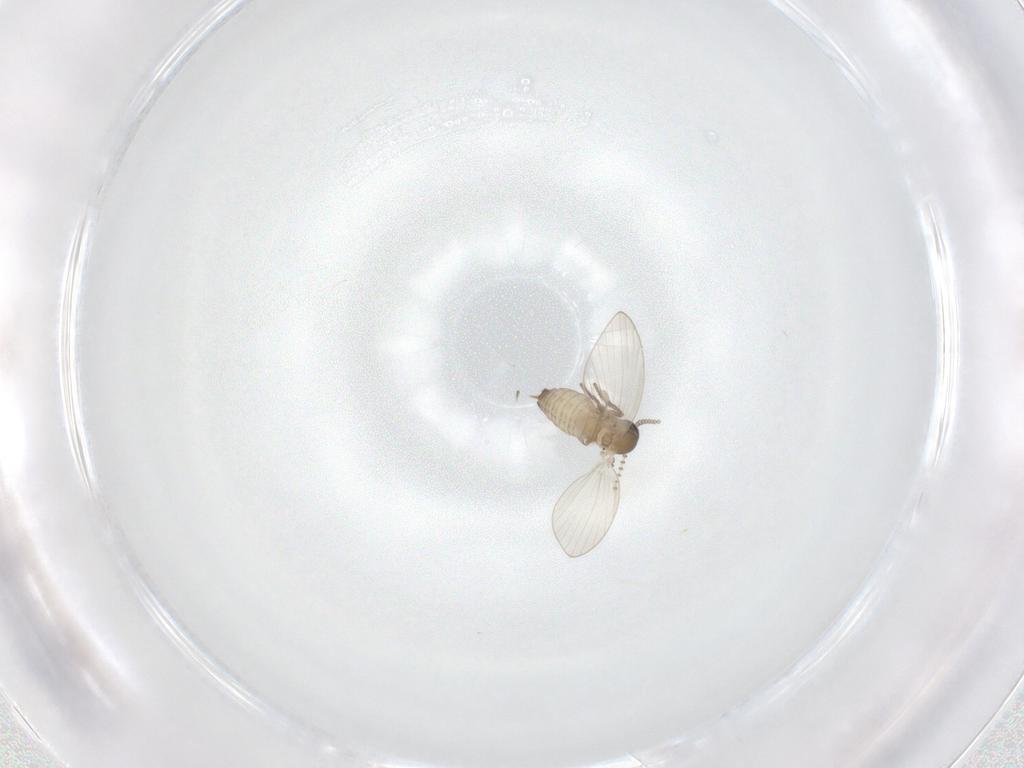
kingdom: Animalia
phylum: Arthropoda
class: Insecta
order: Diptera
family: Psychodidae
